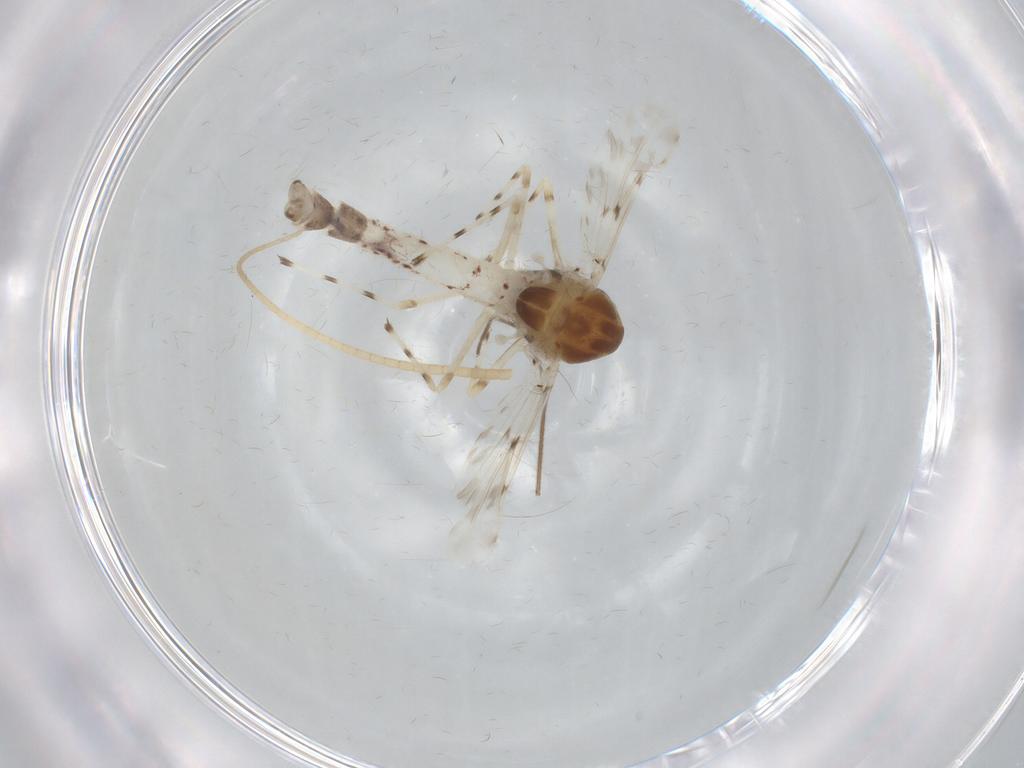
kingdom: Animalia
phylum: Arthropoda
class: Insecta
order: Diptera
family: Chironomidae
